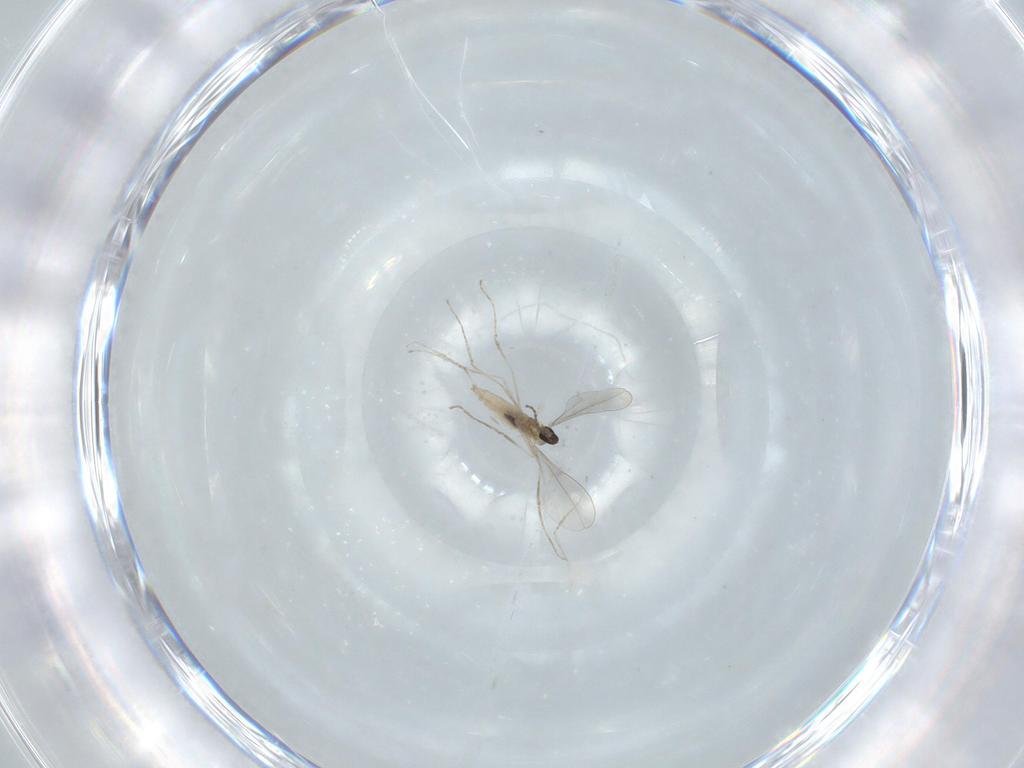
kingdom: Animalia
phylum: Arthropoda
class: Insecta
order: Diptera
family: Cecidomyiidae
